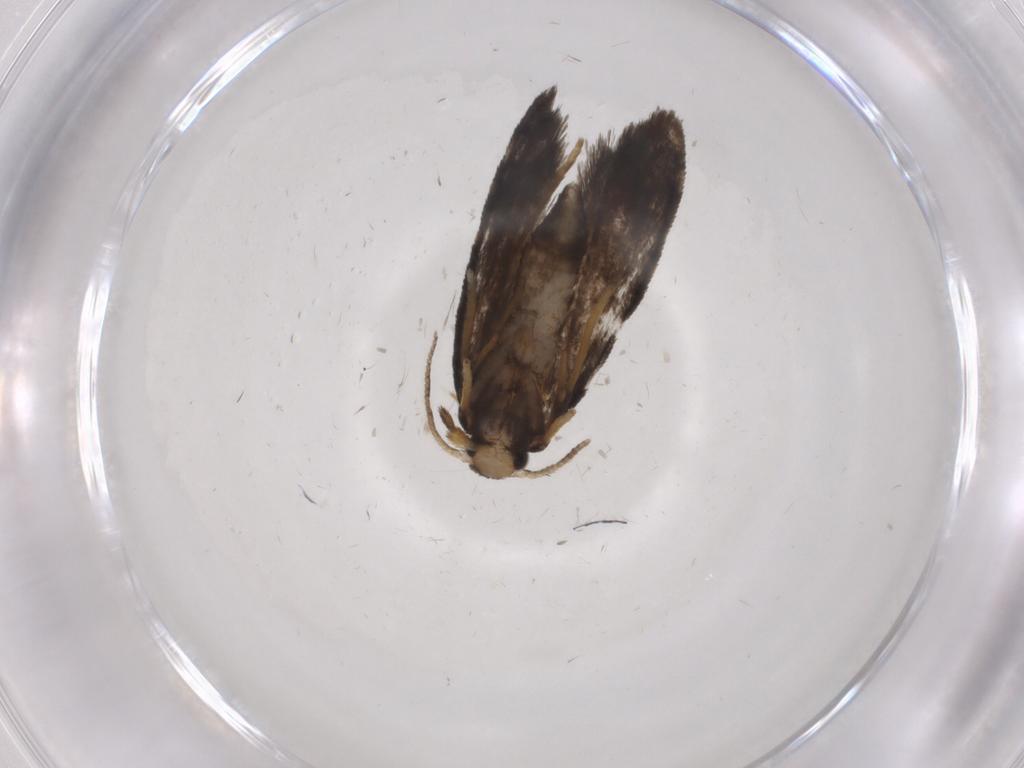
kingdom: Animalia
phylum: Arthropoda
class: Insecta
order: Lepidoptera
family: Psychidae
